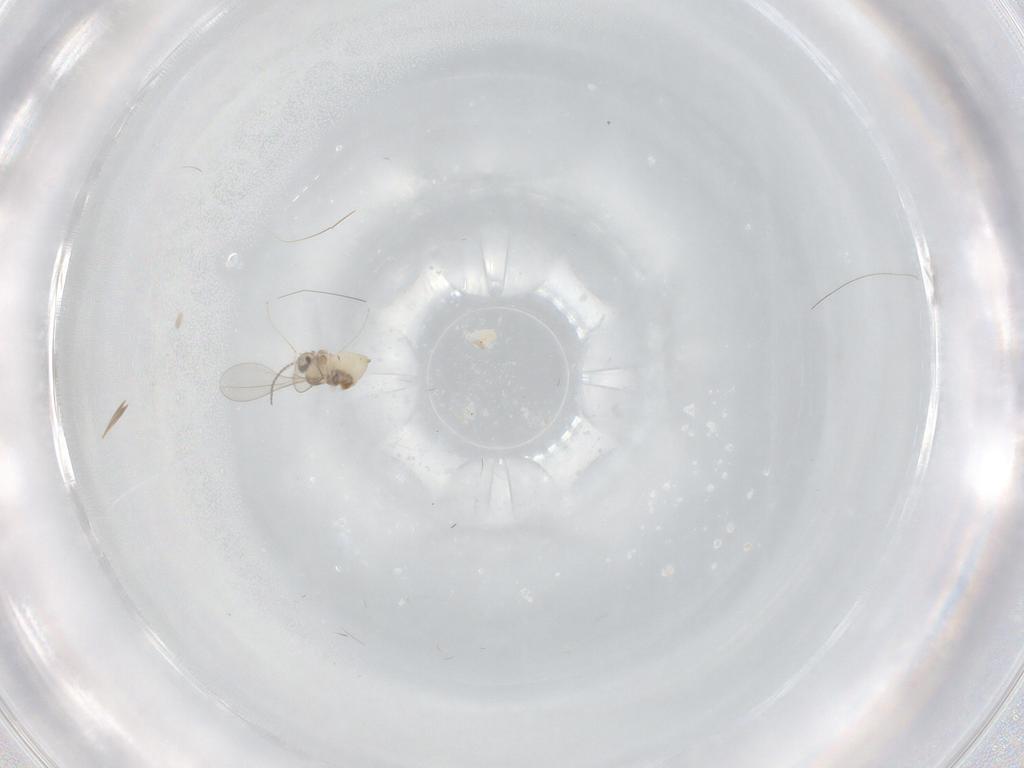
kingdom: Animalia
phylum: Arthropoda
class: Insecta
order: Diptera
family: Cecidomyiidae
